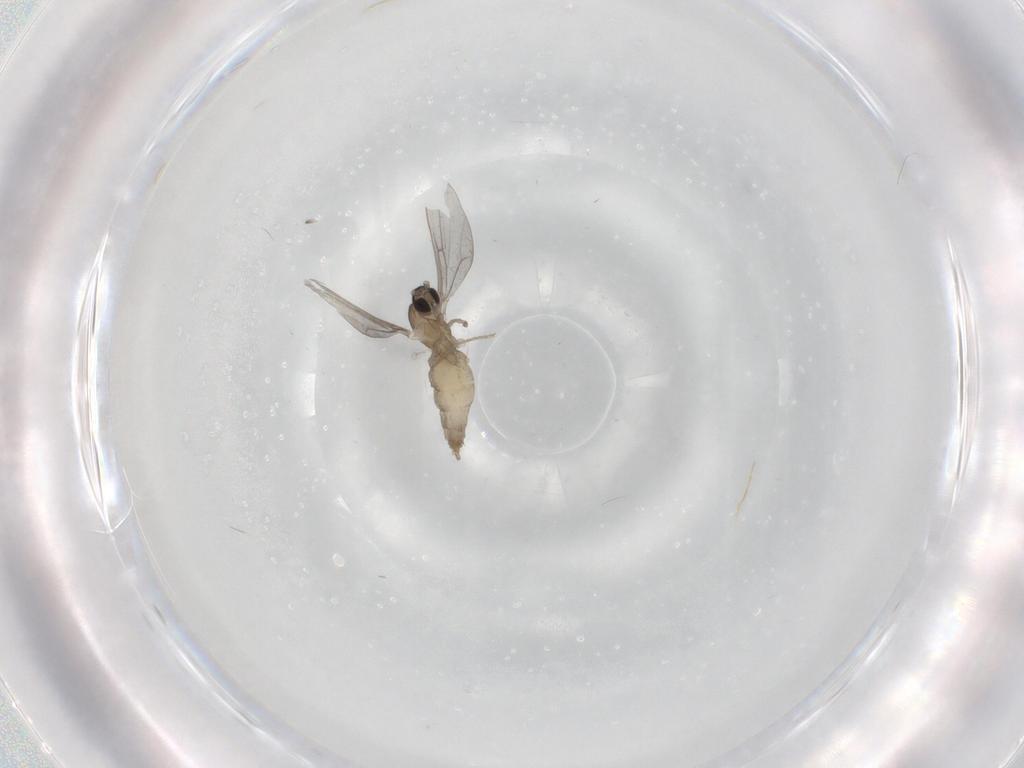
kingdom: Animalia
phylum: Arthropoda
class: Insecta
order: Diptera
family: Cecidomyiidae
